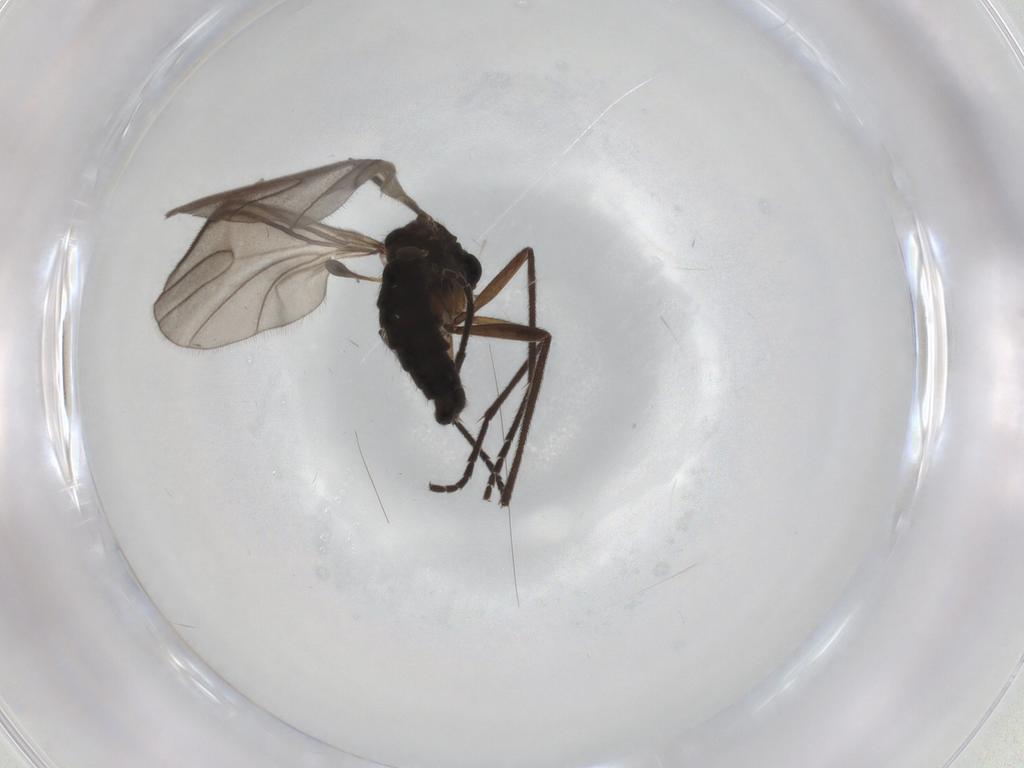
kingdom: Animalia
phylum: Arthropoda
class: Insecta
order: Diptera
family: Sciaridae
